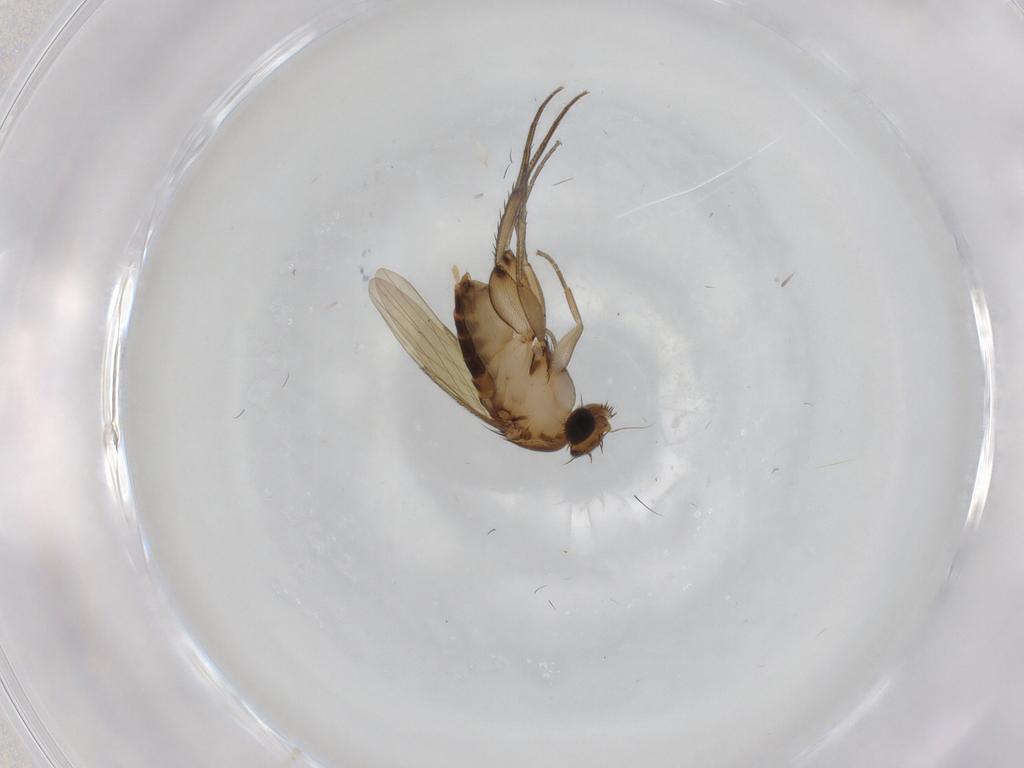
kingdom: Animalia
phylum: Arthropoda
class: Insecta
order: Diptera
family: Phoridae
